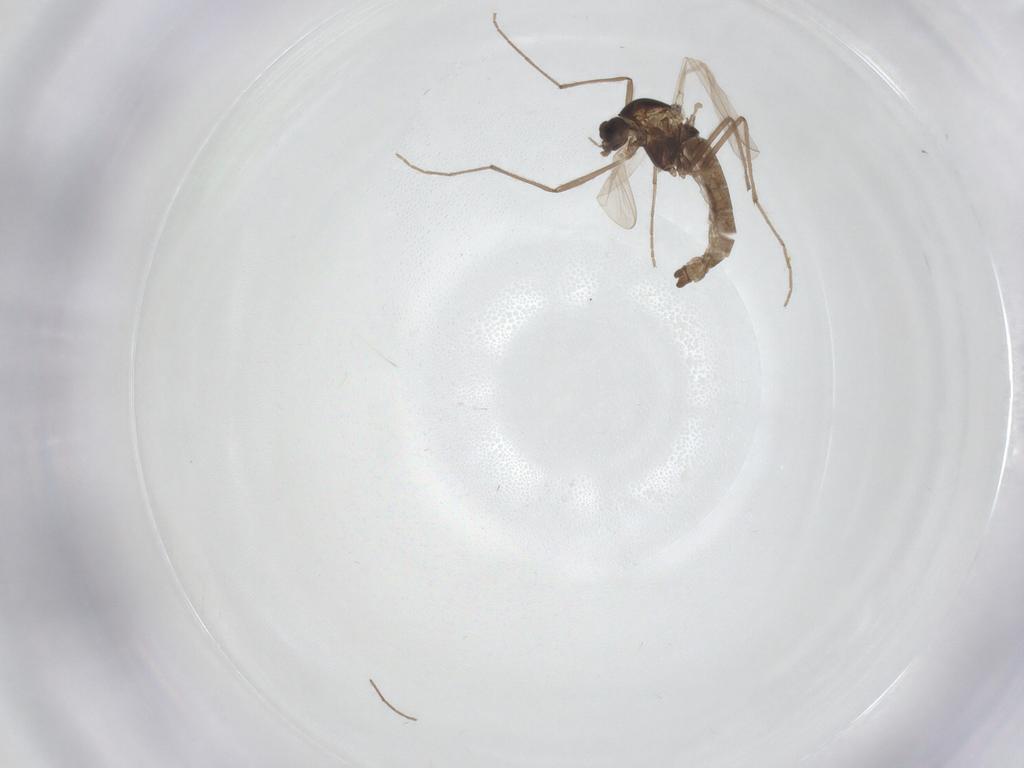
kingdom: Animalia
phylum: Arthropoda
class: Insecta
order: Diptera
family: Chironomidae
